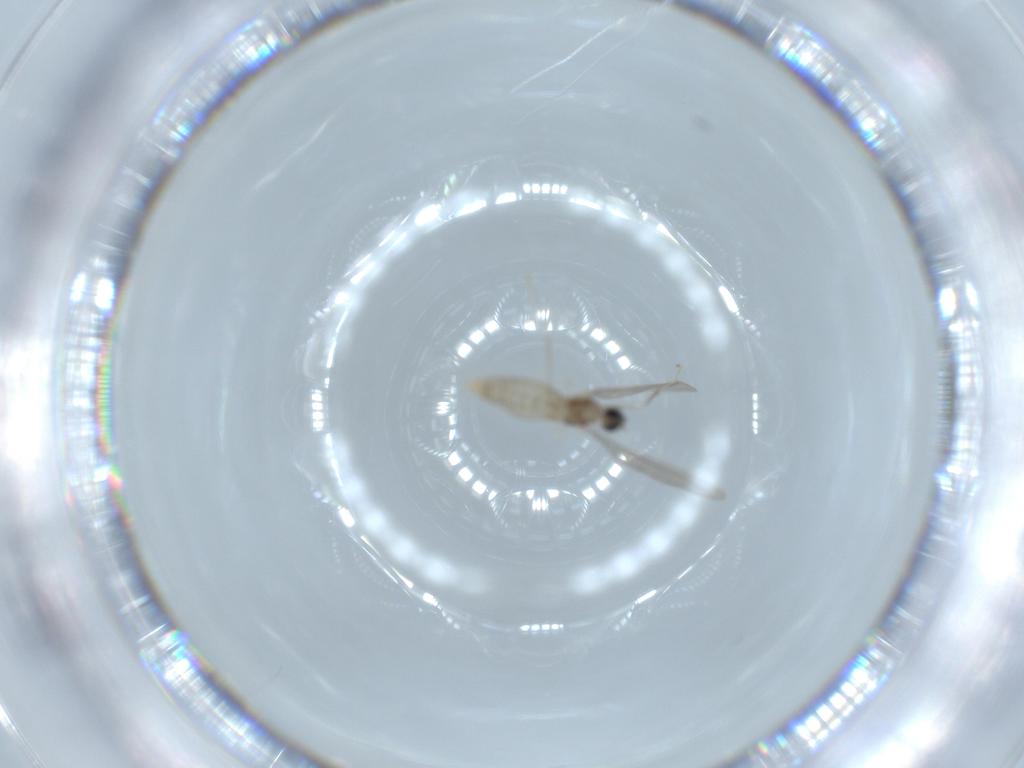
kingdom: Animalia
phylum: Arthropoda
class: Insecta
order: Diptera
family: Cecidomyiidae
